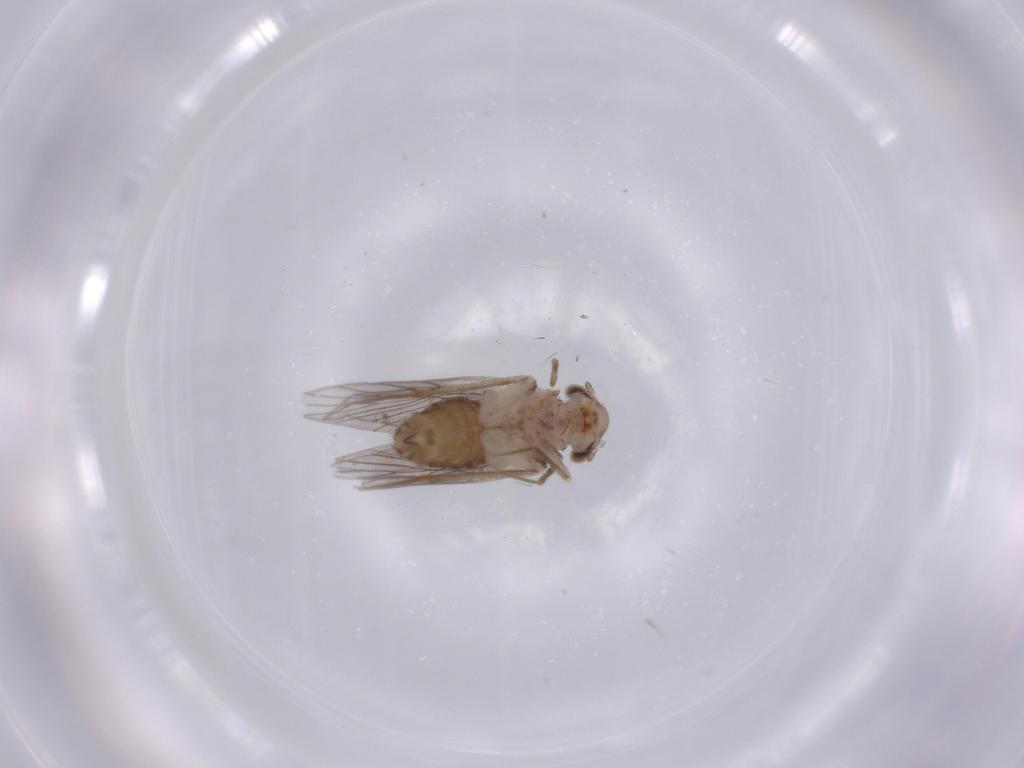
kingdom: Animalia
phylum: Arthropoda
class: Insecta
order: Psocodea
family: Lepidopsocidae
